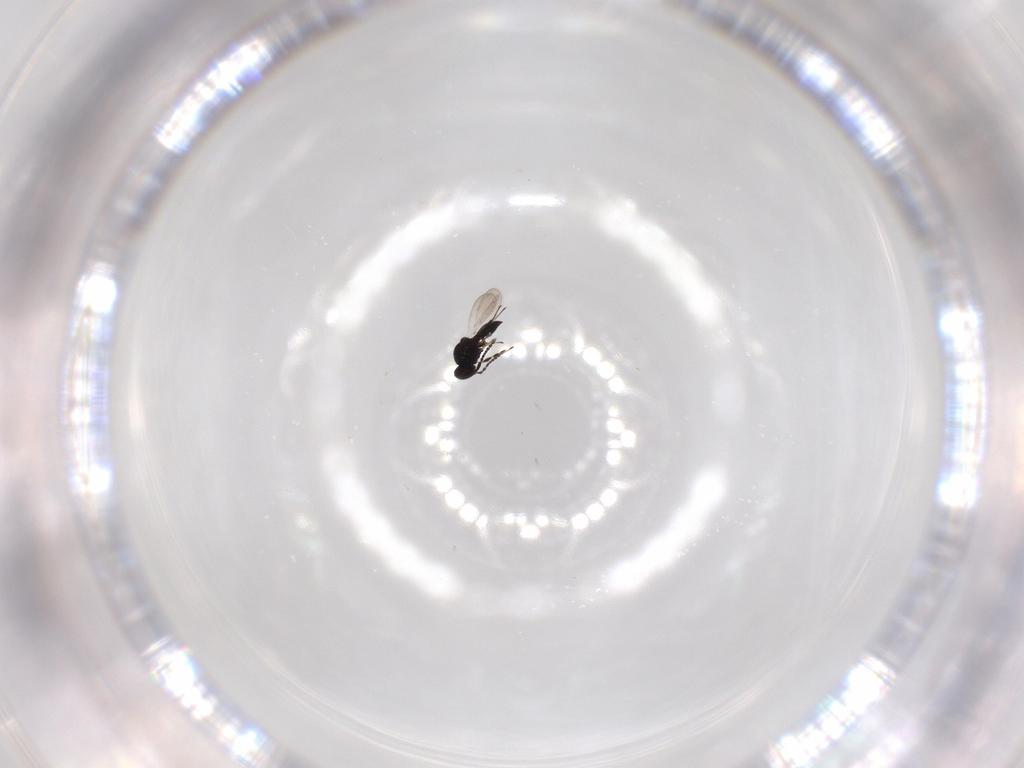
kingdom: Animalia
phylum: Arthropoda
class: Insecta
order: Hymenoptera
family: Platygastridae
